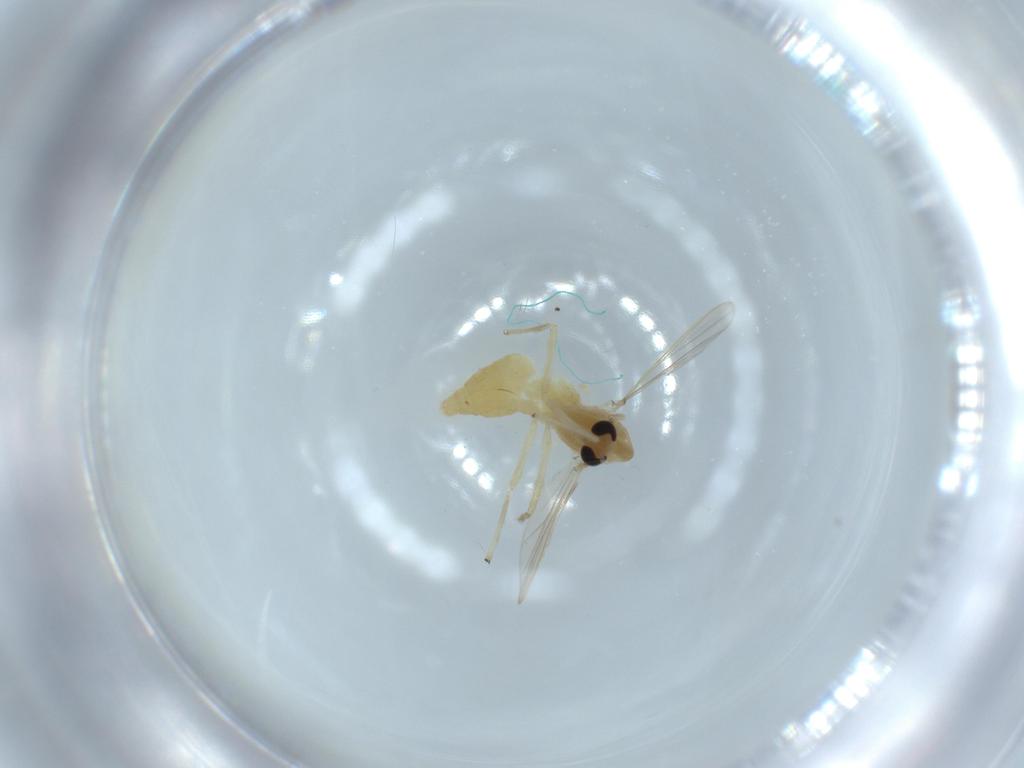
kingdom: Animalia
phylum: Arthropoda
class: Insecta
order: Diptera
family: Chironomidae
